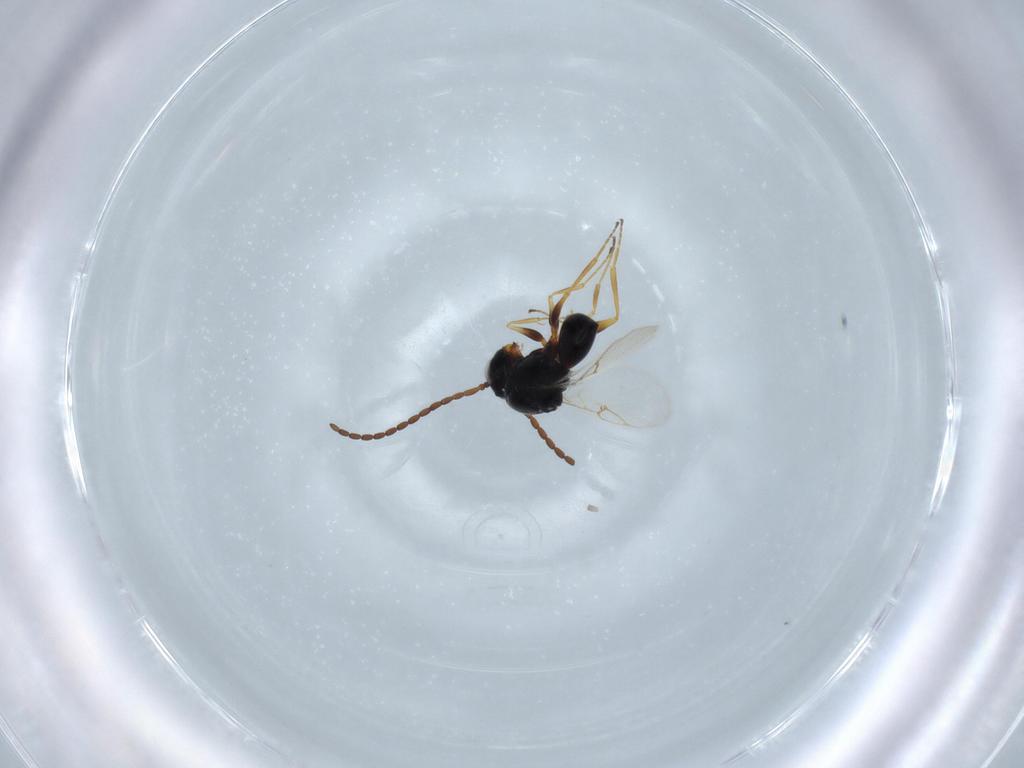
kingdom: Animalia
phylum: Arthropoda
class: Insecta
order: Hymenoptera
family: Figitidae
